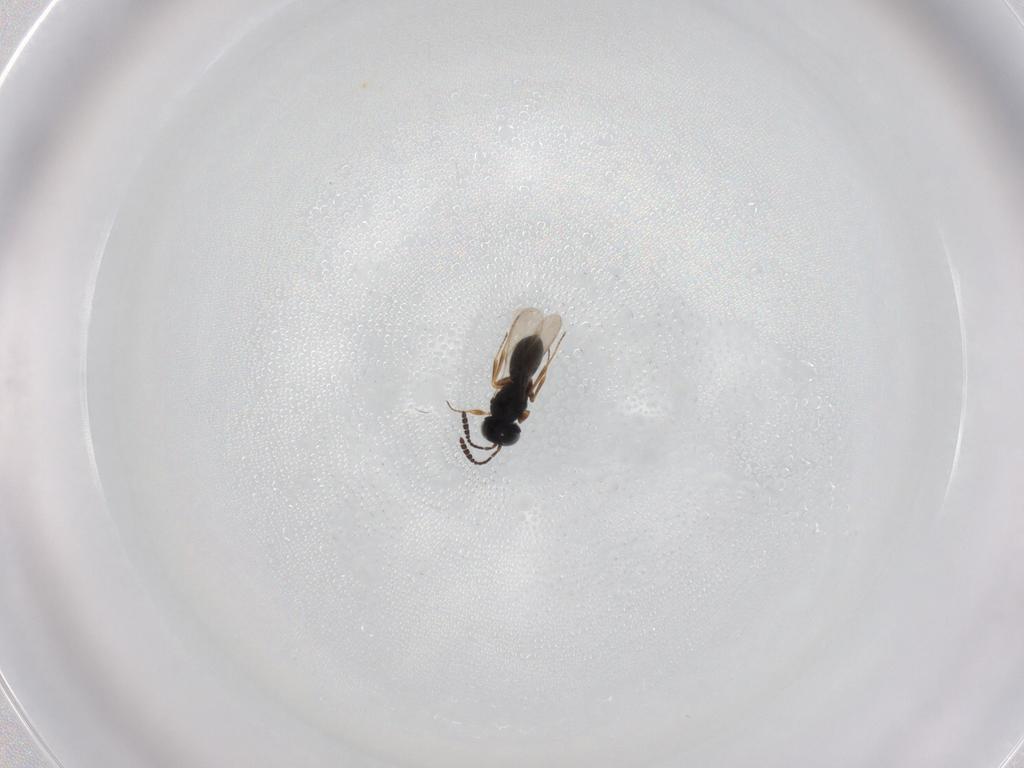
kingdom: Animalia
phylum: Arthropoda
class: Insecta
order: Hymenoptera
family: Scelionidae
